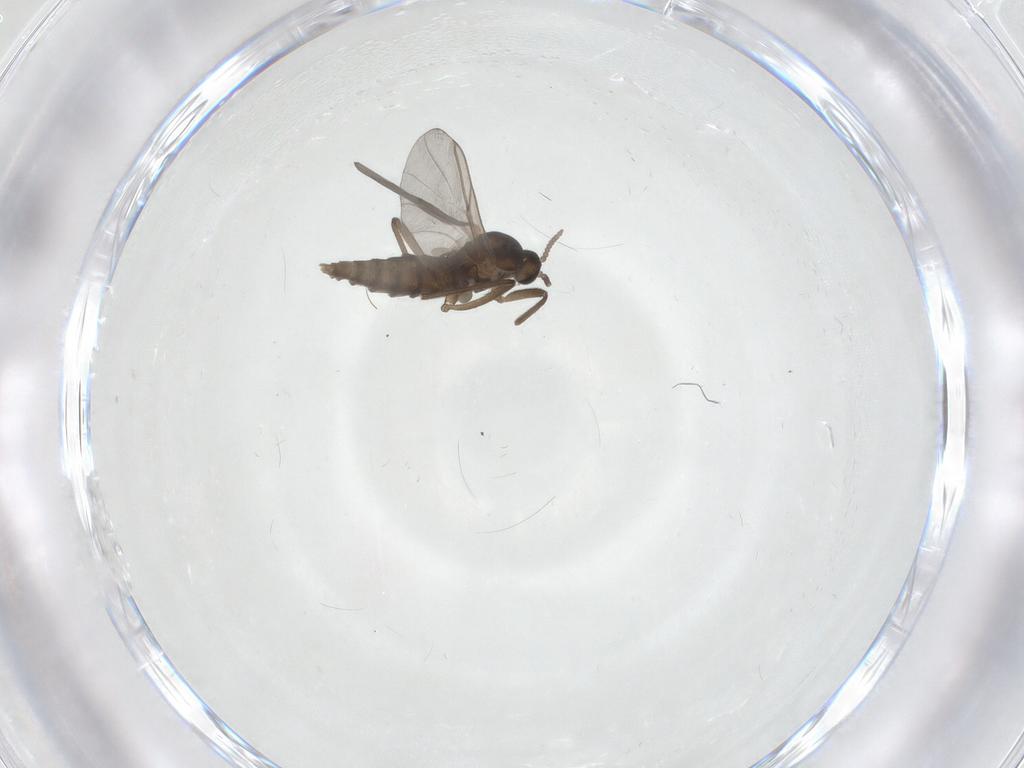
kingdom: Animalia
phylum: Arthropoda
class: Insecta
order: Diptera
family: Cecidomyiidae
